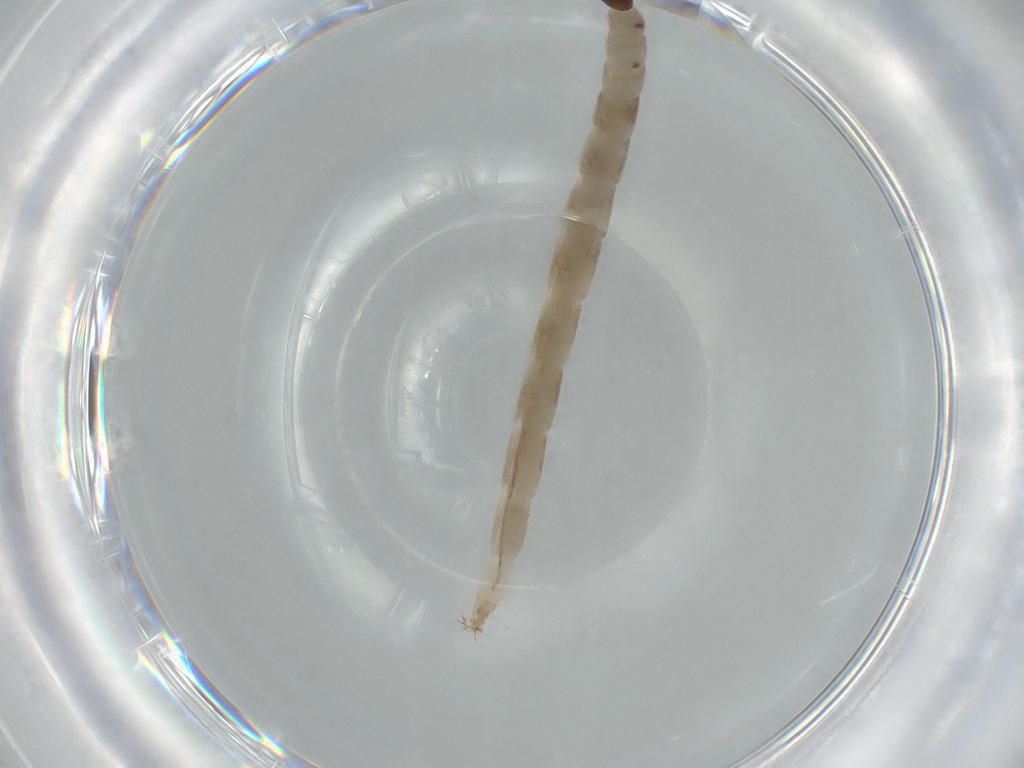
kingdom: Animalia
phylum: Arthropoda
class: Insecta
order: Diptera
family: Ceratopogonidae
